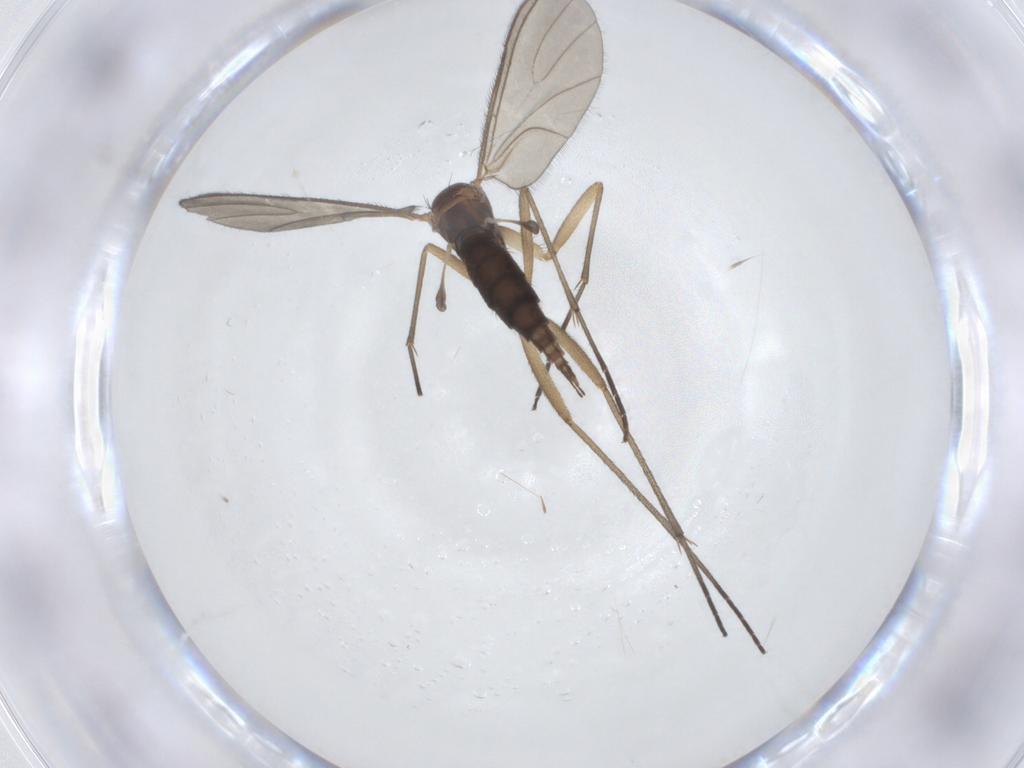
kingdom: Animalia
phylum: Arthropoda
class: Insecta
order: Diptera
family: Sciaridae
